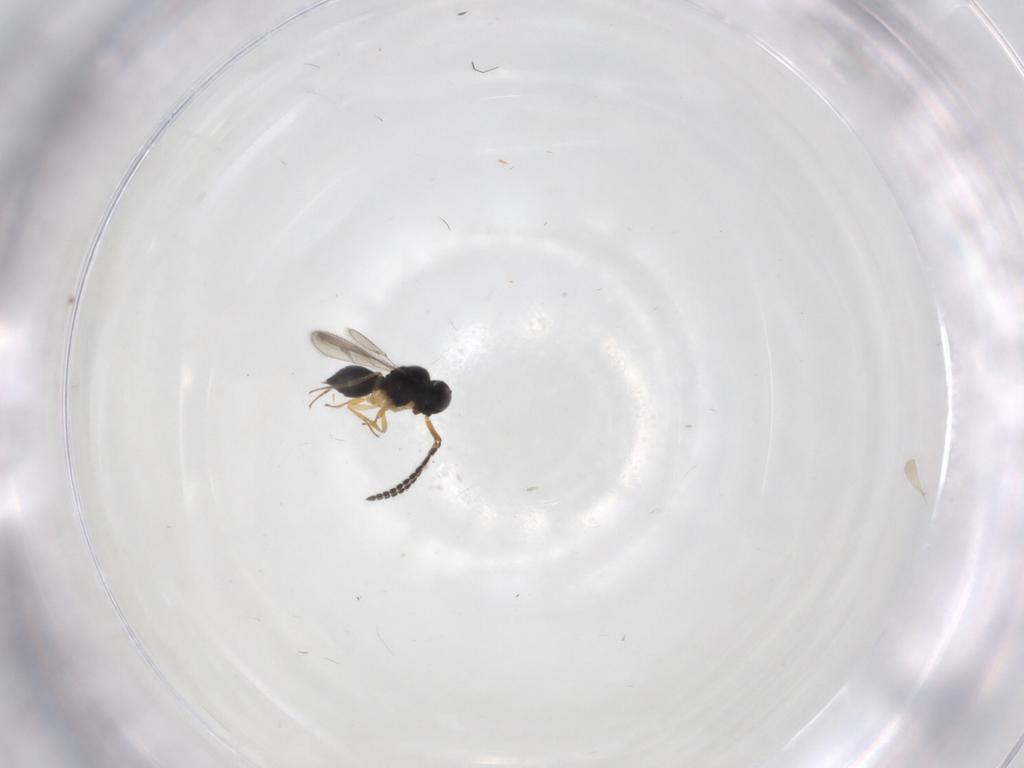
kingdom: Animalia
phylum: Arthropoda
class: Insecta
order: Hymenoptera
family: Scelionidae
